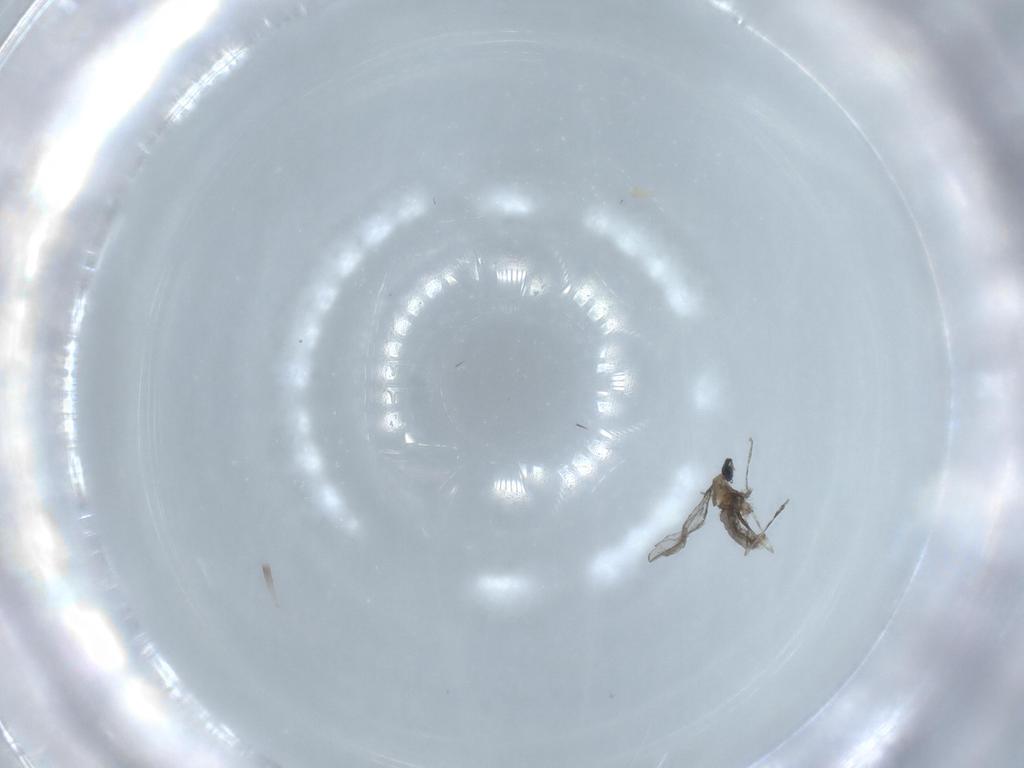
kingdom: Animalia
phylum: Arthropoda
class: Insecta
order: Diptera
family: Cecidomyiidae
